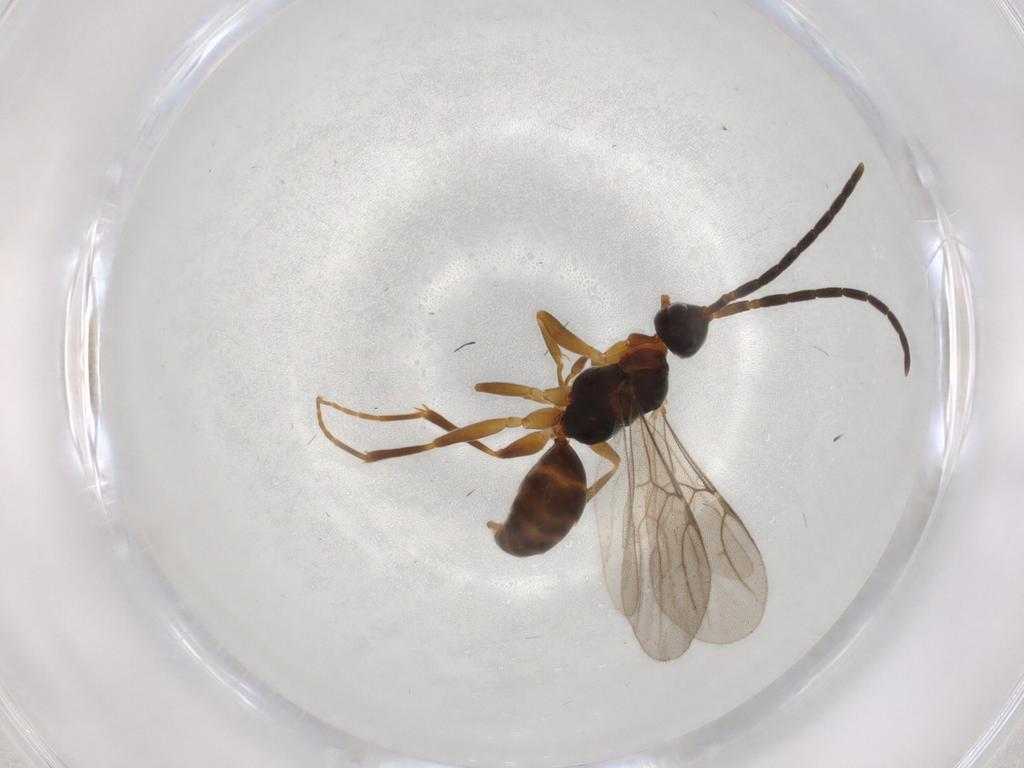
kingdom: Animalia
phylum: Arthropoda
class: Insecta
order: Hymenoptera
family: Embolemidae
